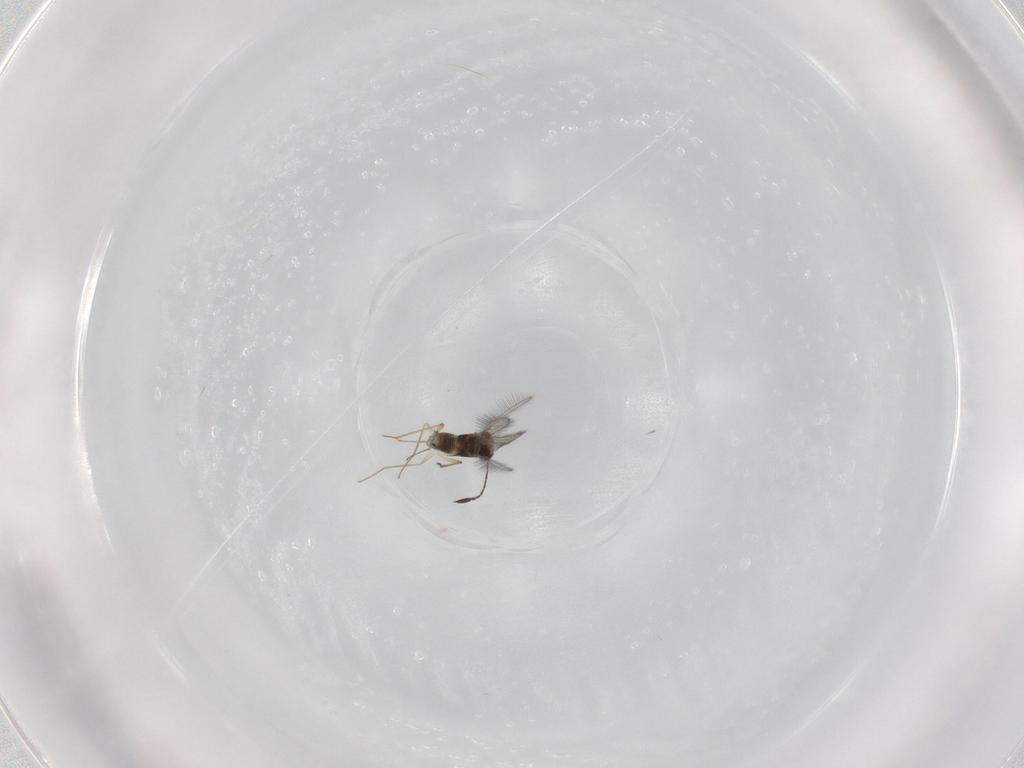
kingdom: Animalia
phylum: Arthropoda
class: Insecta
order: Hymenoptera
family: Mymaridae
